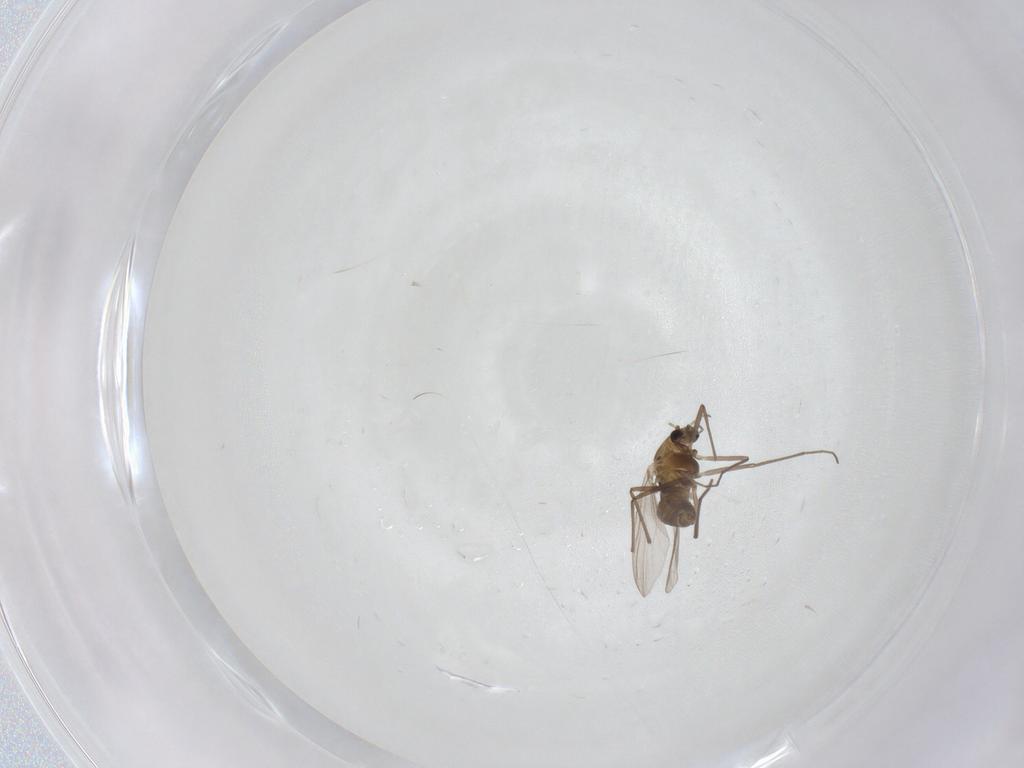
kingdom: Animalia
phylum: Arthropoda
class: Insecta
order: Diptera
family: Chironomidae
